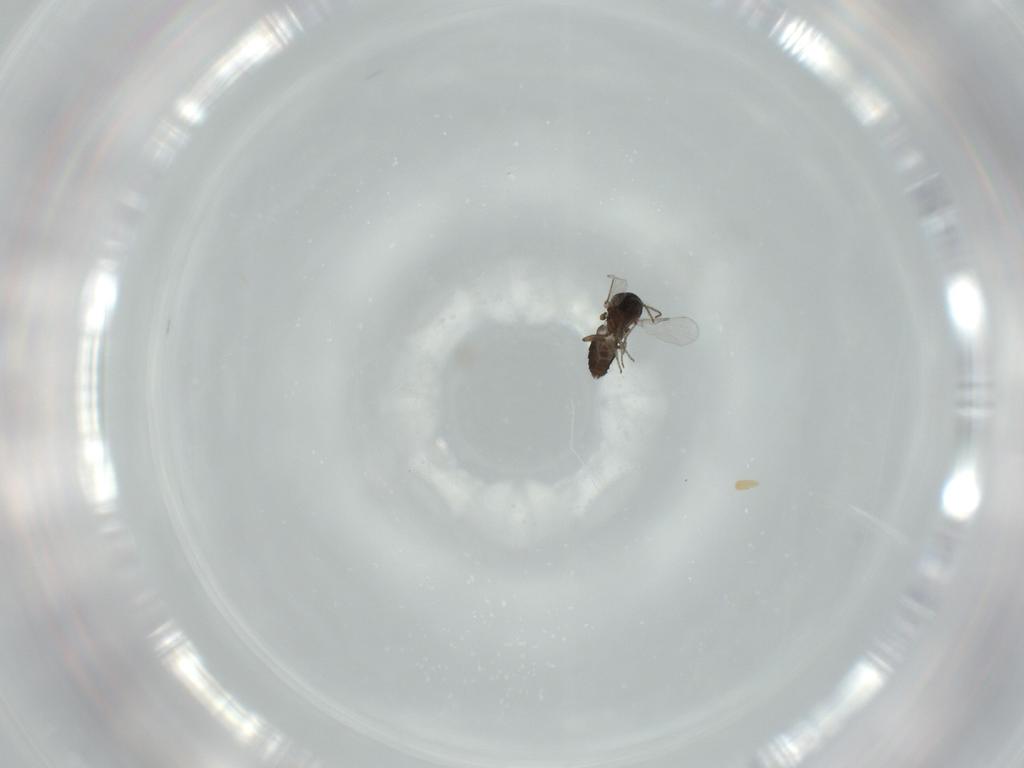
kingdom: Animalia
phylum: Arthropoda
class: Insecta
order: Diptera
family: Ceratopogonidae
